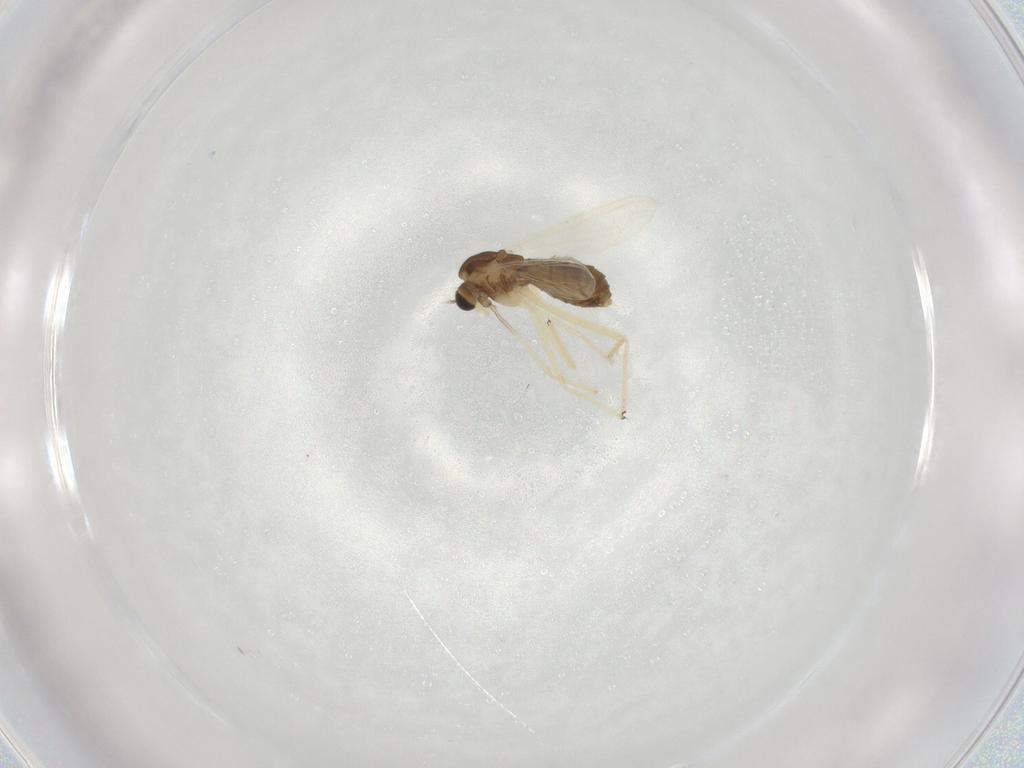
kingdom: Animalia
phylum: Arthropoda
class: Insecta
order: Diptera
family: Chironomidae
